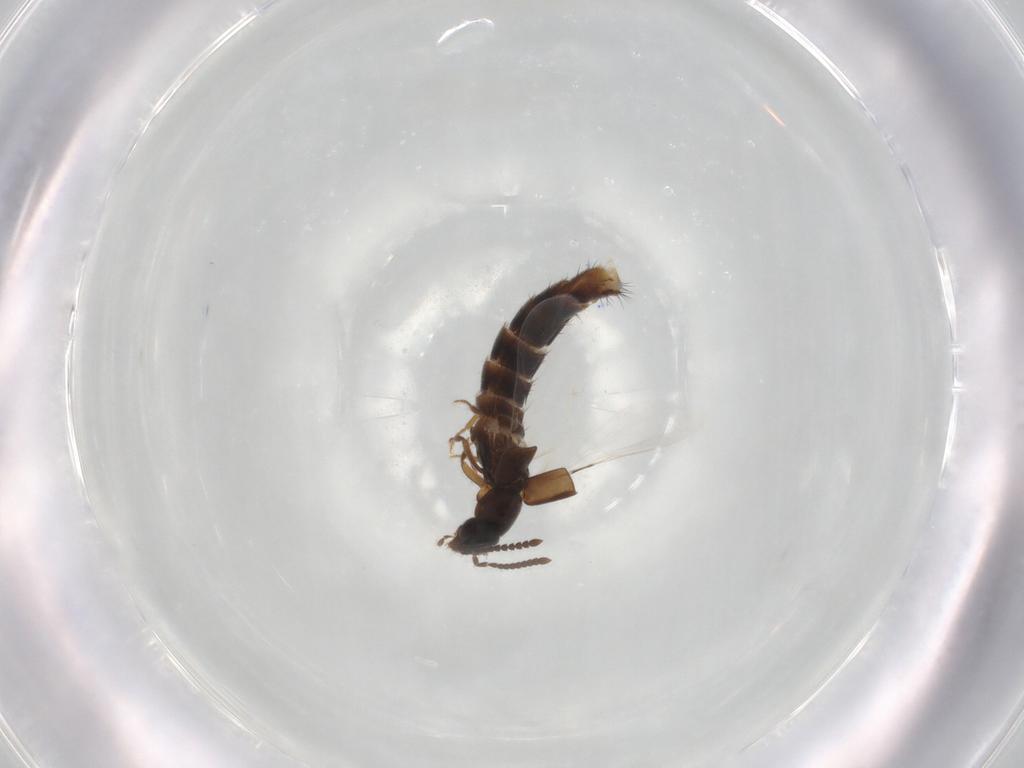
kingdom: Animalia
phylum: Arthropoda
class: Insecta
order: Coleoptera
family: Staphylinidae
